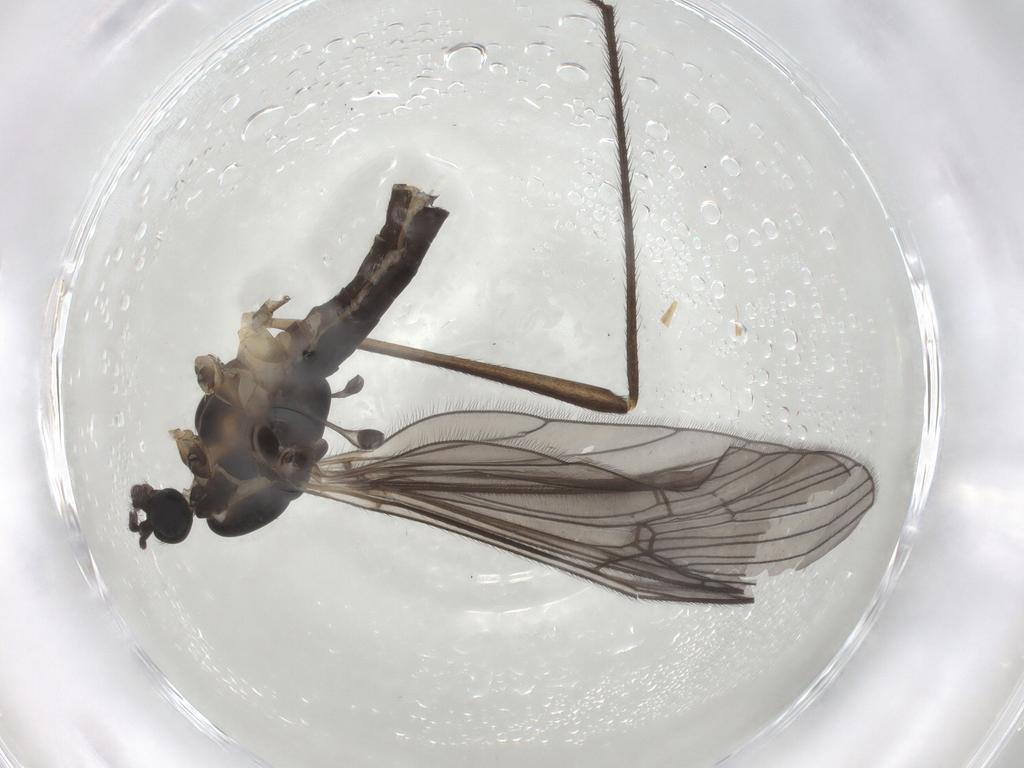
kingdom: Animalia
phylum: Arthropoda
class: Insecta
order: Diptera
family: Limoniidae
